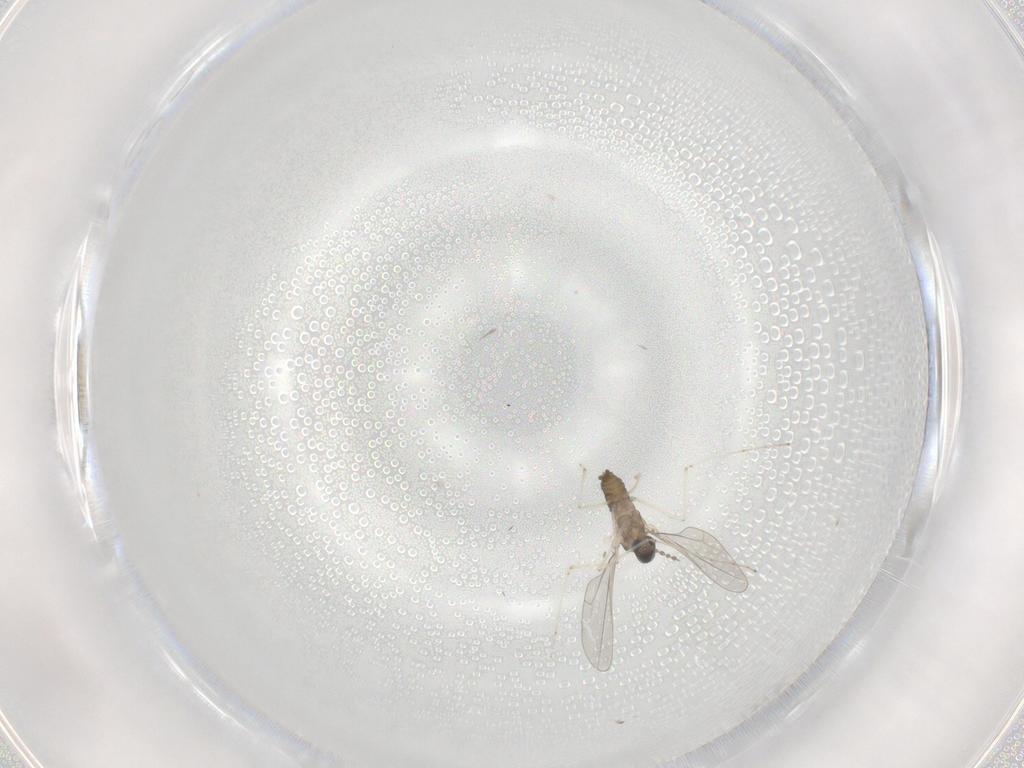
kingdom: Animalia
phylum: Arthropoda
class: Insecta
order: Diptera
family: Cecidomyiidae
